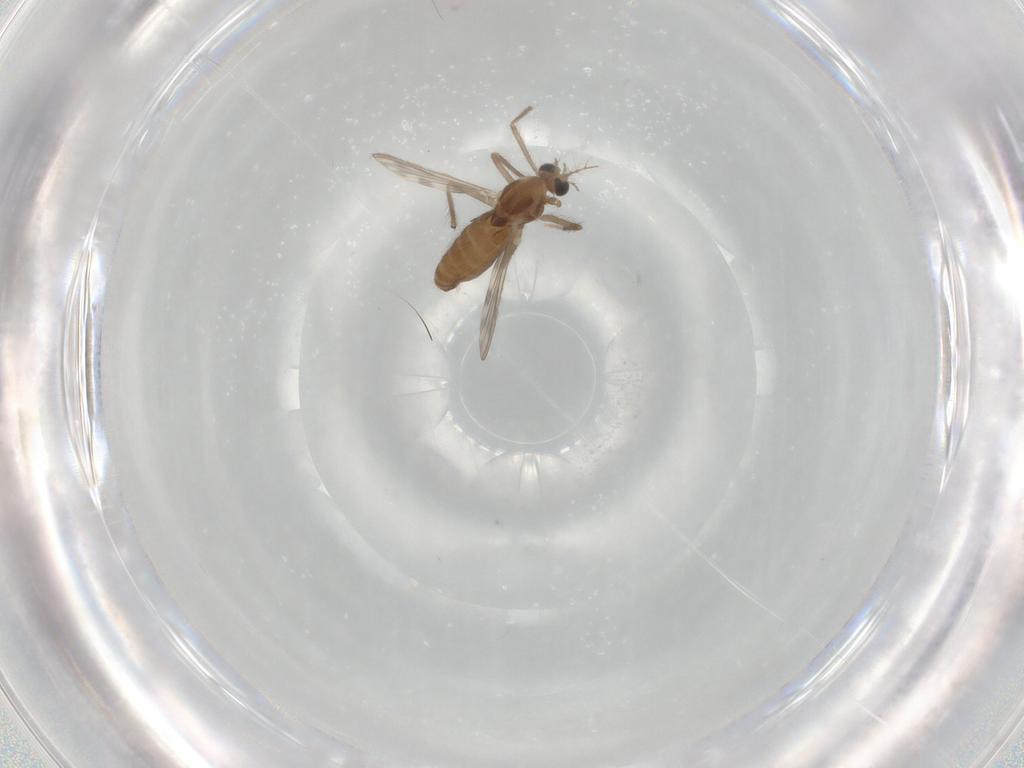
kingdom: Animalia
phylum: Arthropoda
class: Insecta
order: Diptera
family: Chironomidae
